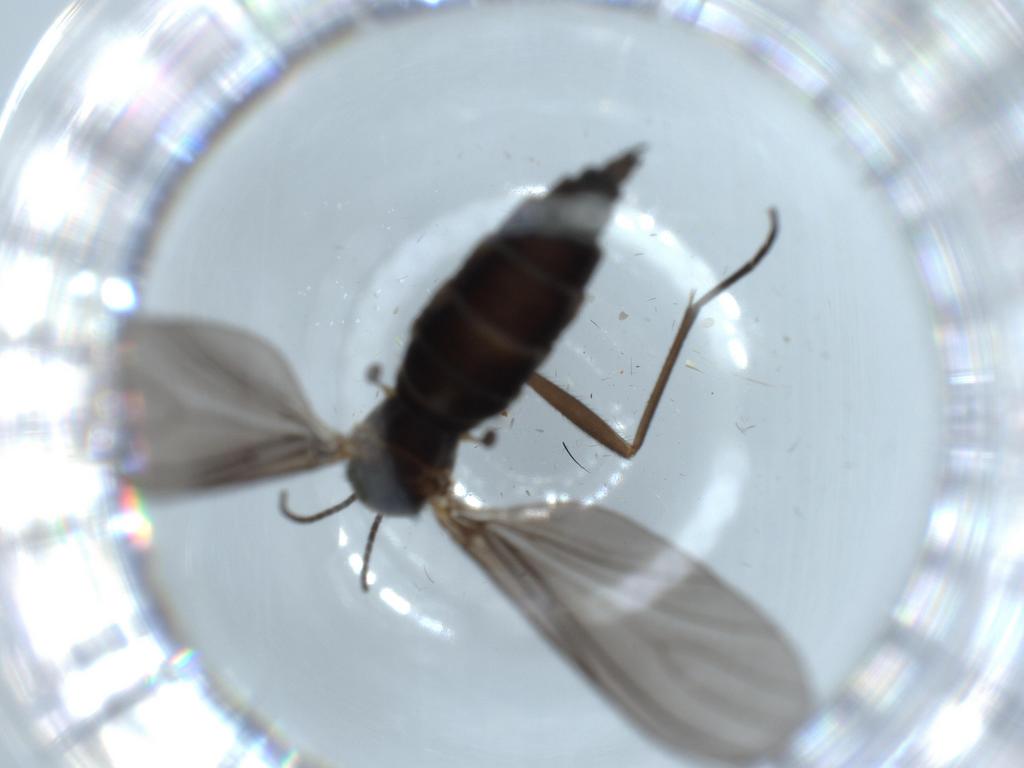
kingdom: Animalia
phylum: Arthropoda
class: Insecta
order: Diptera
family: Sciaridae
